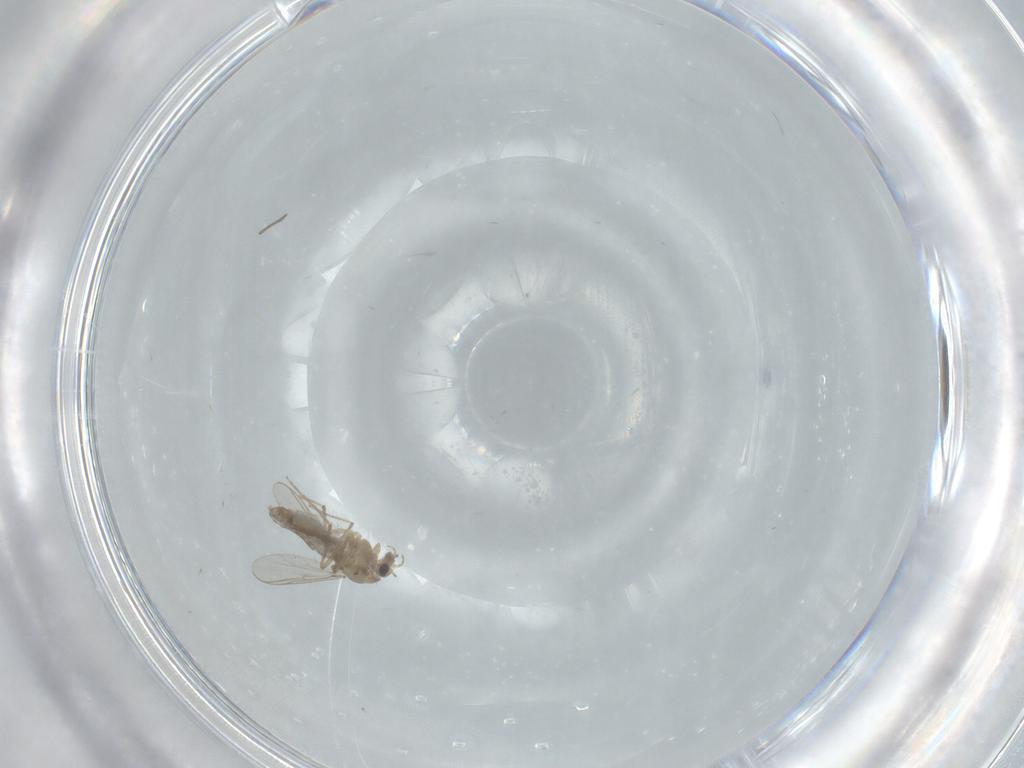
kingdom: Animalia
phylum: Arthropoda
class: Insecta
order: Diptera
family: Chironomidae
